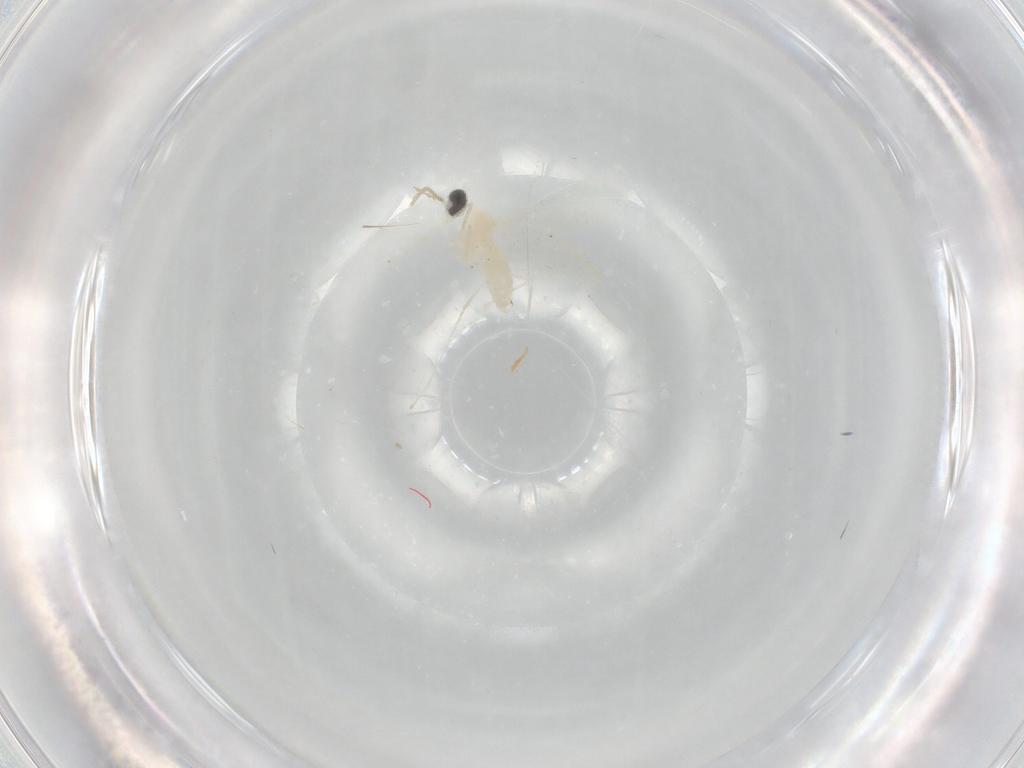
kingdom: Animalia
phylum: Arthropoda
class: Insecta
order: Diptera
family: Cecidomyiidae
